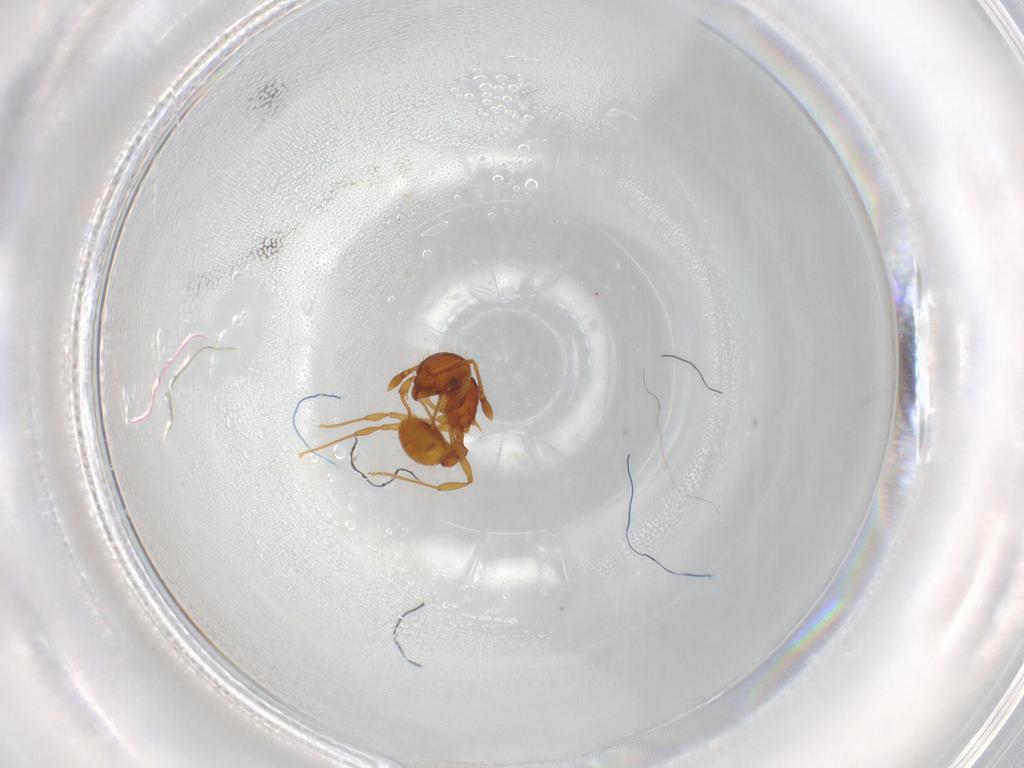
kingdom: Animalia
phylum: Arthropoda
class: Insecta
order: Hymenoptera
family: Formicidae
